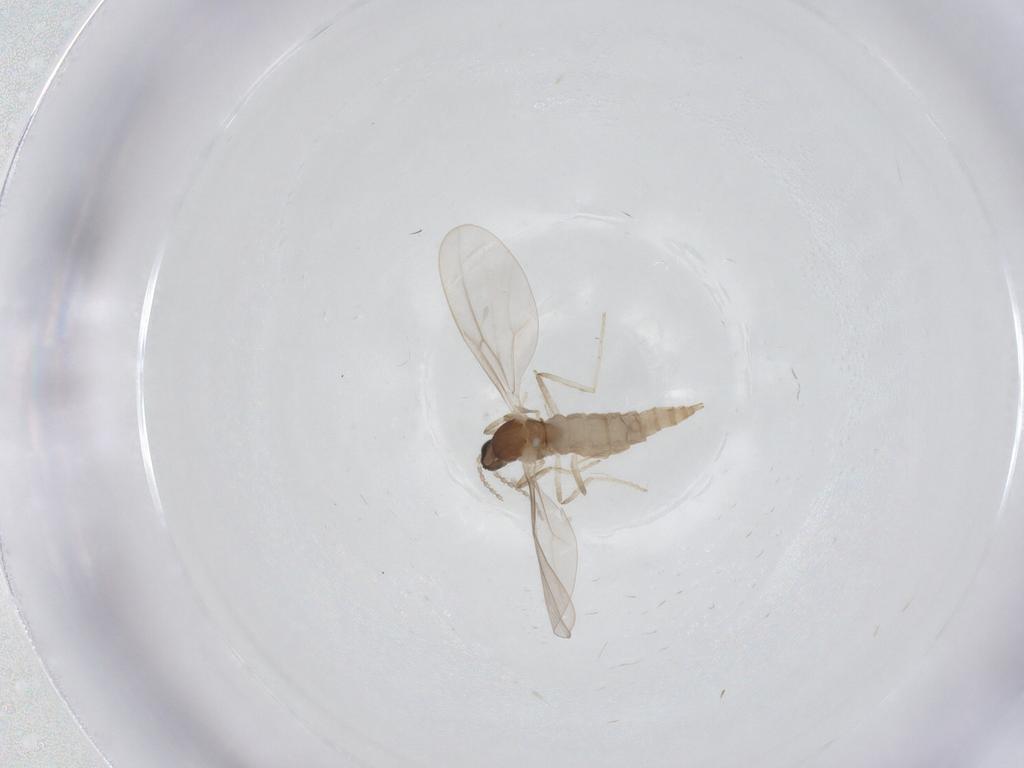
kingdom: Animalia
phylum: Arthropoda
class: Insecta
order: Diptera
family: Cecidomyiidae
